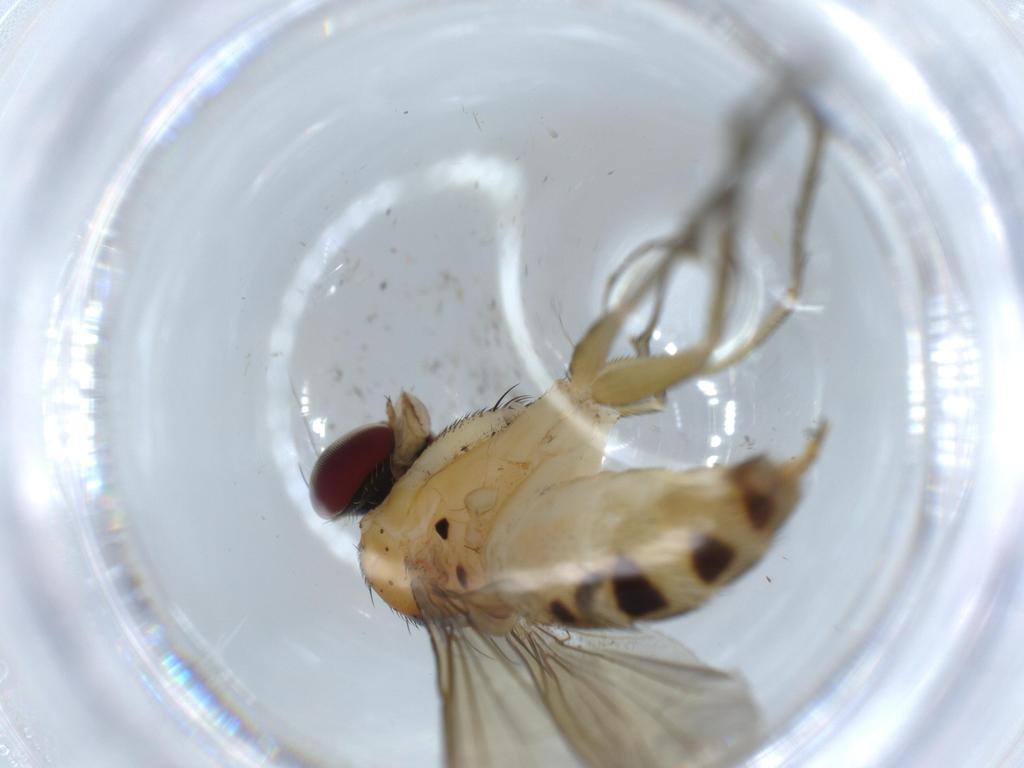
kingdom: Animalia
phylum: Arthropoda
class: Insecta
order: Diptera
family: Dolichopodidae
